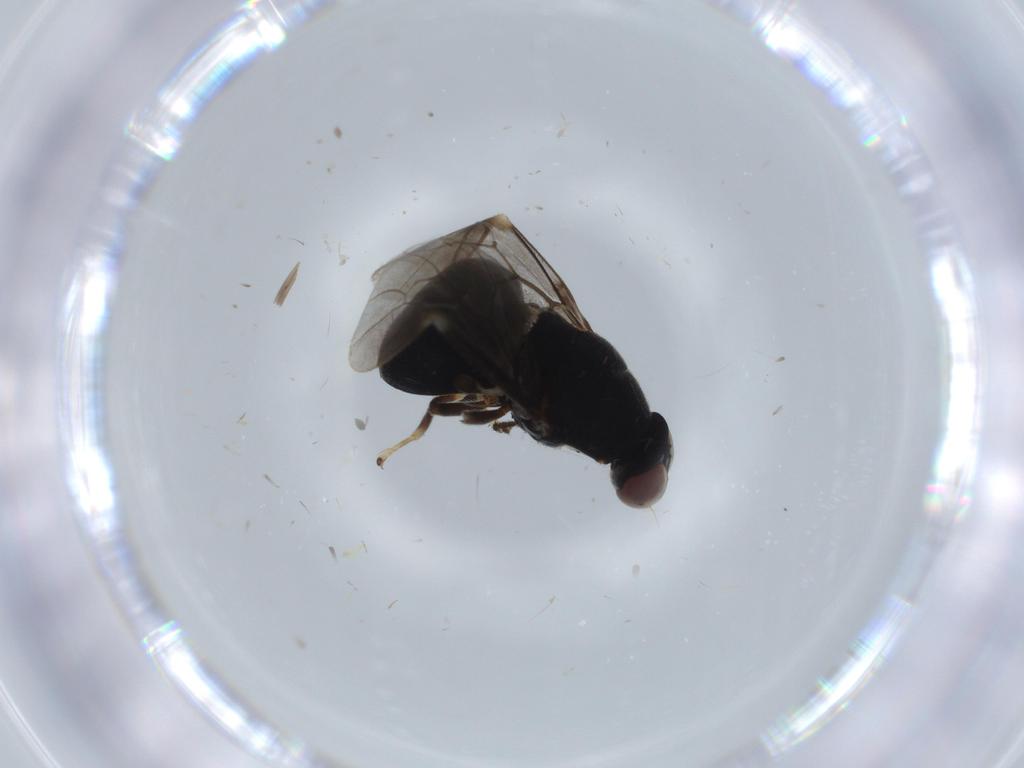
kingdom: Animalia
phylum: Arthropoda
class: Insecta
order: Diptera
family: Stratiomyidae
